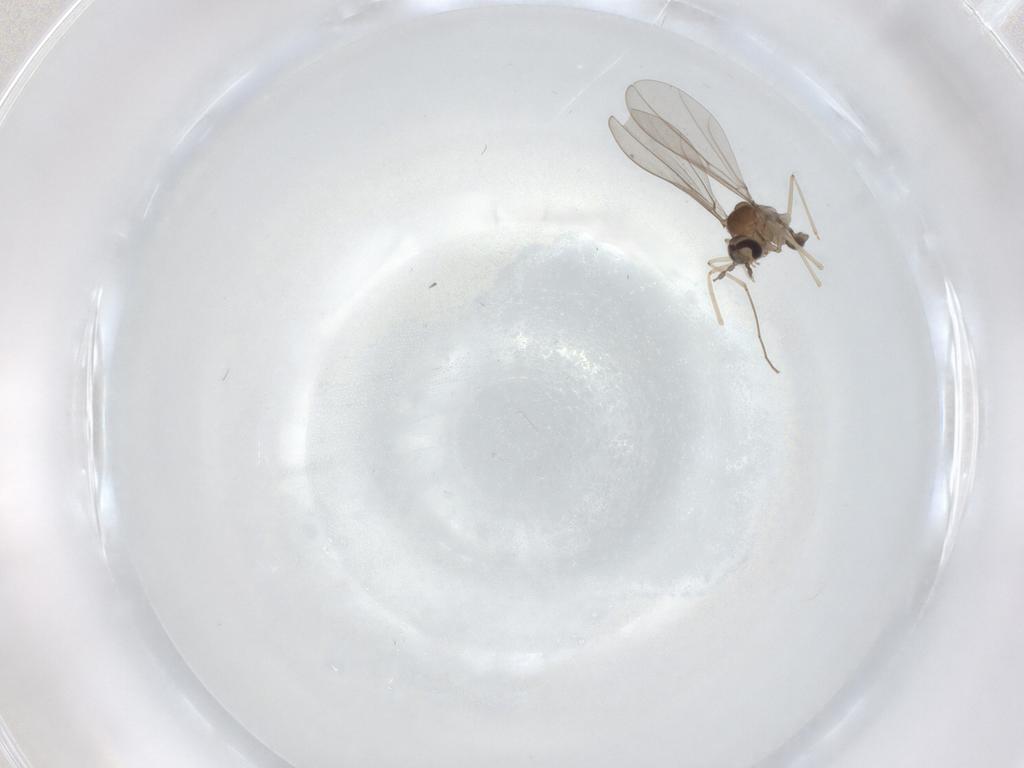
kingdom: Animalia
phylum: Arthropoda
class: Insecta
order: Diptera
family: Cecidomyiidae
